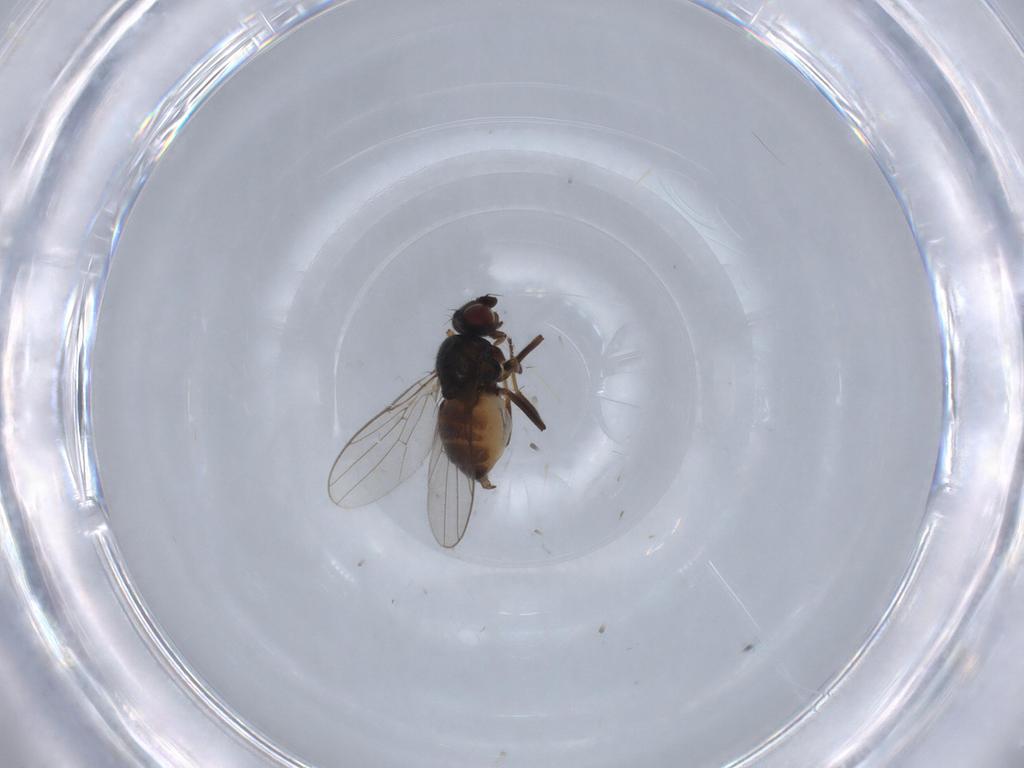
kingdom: Animalia
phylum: Arthropoda
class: Insecta
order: Diptera
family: Chloropidae
